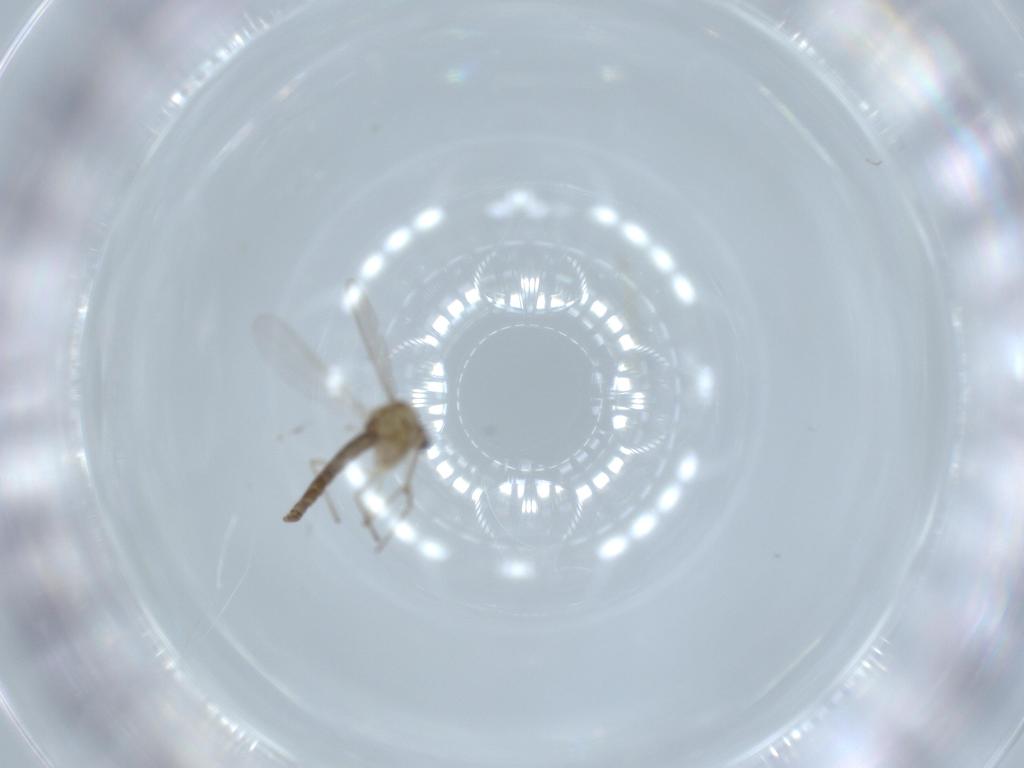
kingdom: Animalia
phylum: Arthropoda
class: Insecta
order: Diptera
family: Chironomidae
